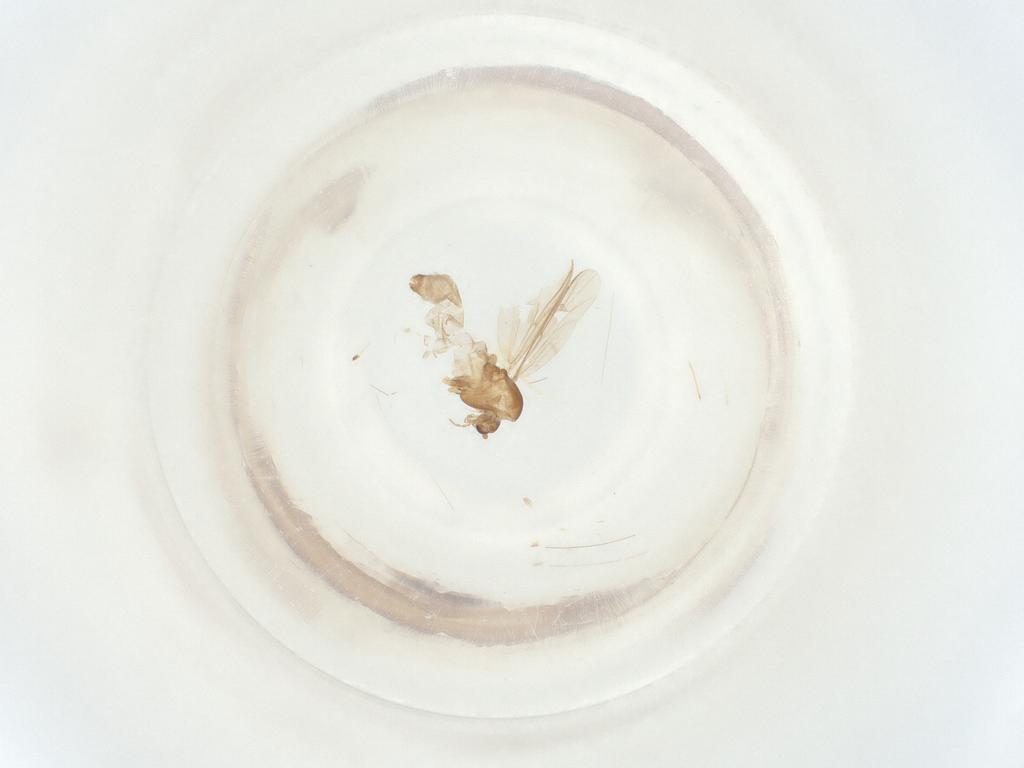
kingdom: Animalia
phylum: Arthropoda
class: Insecta
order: Diptera
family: Chironomidae
